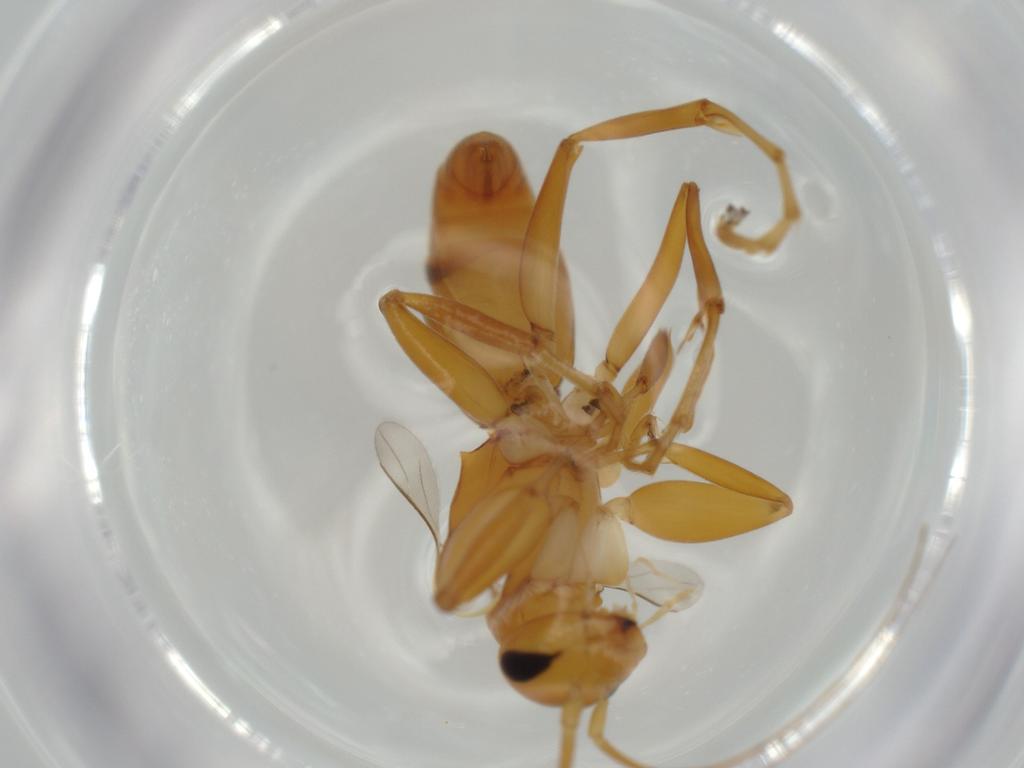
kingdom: Animalia
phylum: Arthropoda
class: Insecta
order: Hymenoptera
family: Rhopalosomatidae
